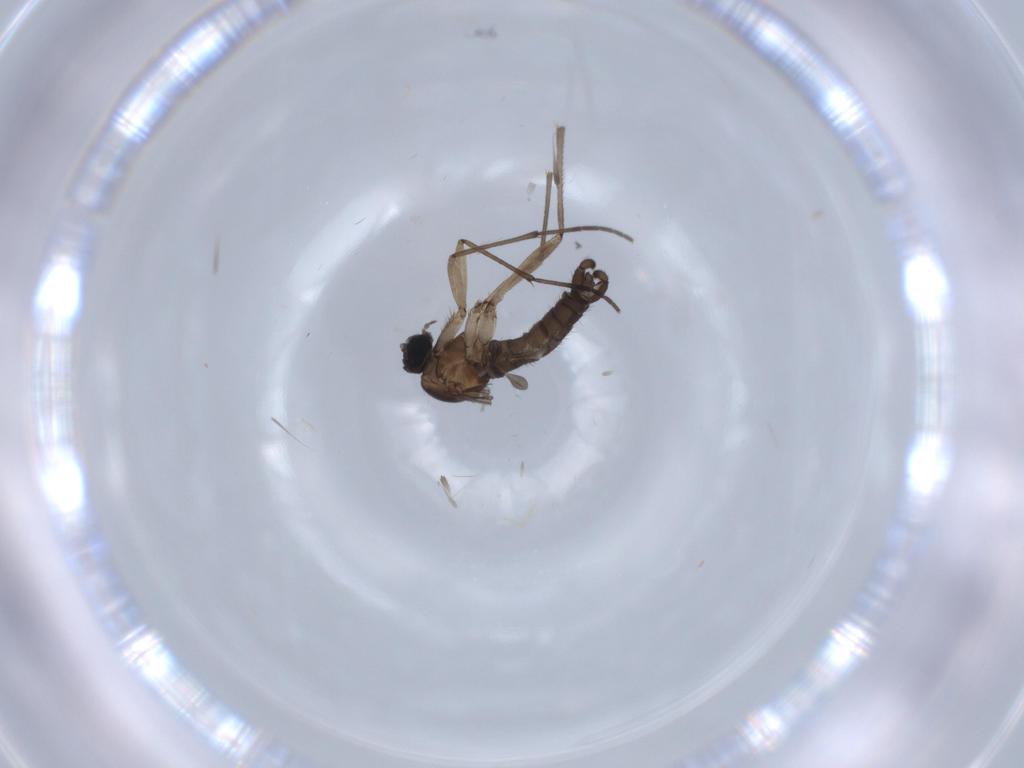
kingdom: Animalia
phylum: Arthropoda
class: Insecta
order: Diptera
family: Sciaridae
